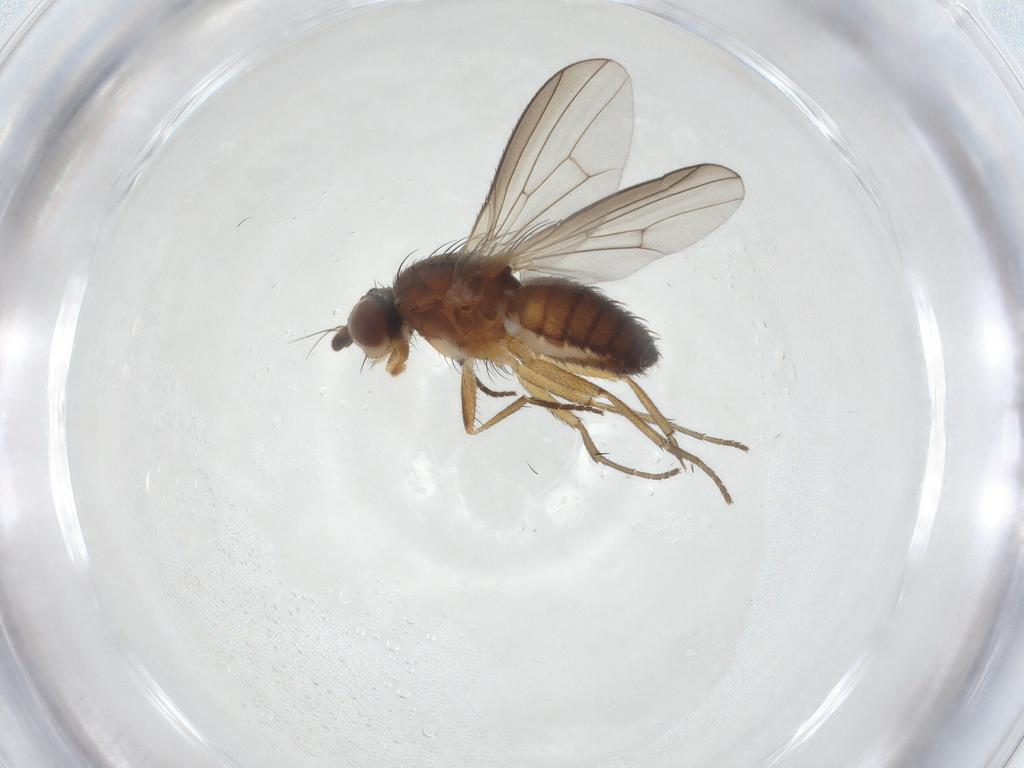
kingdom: Animalia
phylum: Arthropoda
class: Insecta
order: Diptera
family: Heleomyzidae
